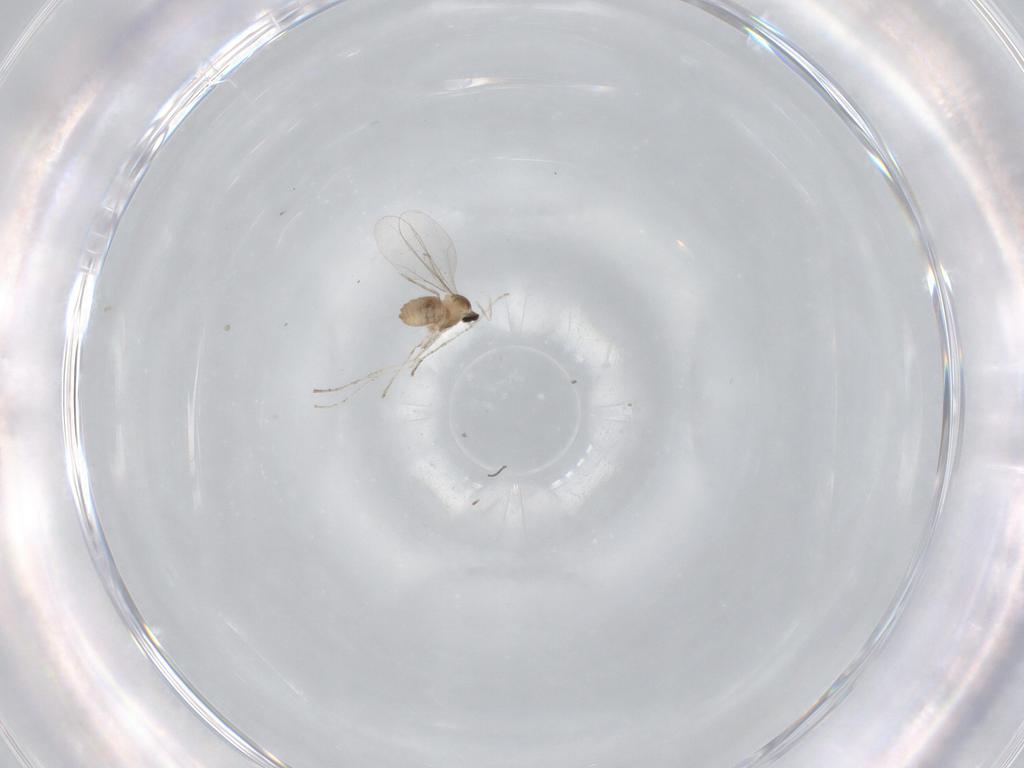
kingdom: Animalia
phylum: Arthropoda
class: Insecta
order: Diptera
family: Cecidomyiidae
